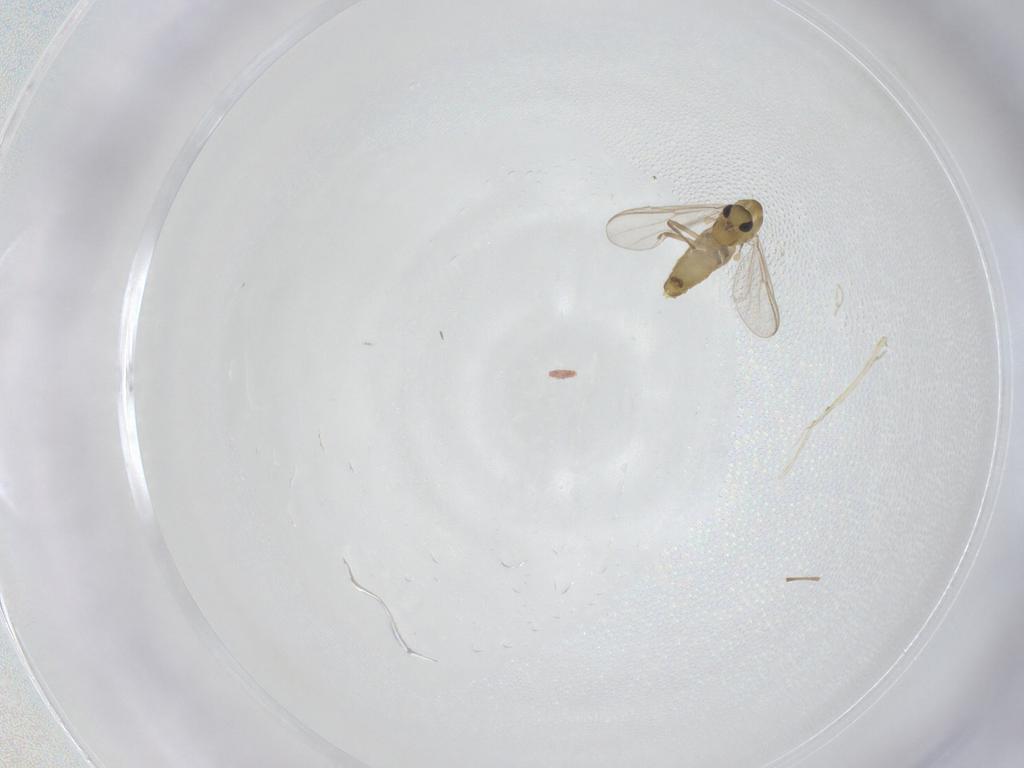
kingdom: Animalia
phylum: Arthropoda
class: Insecta
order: Diptera
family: Chironomidae
